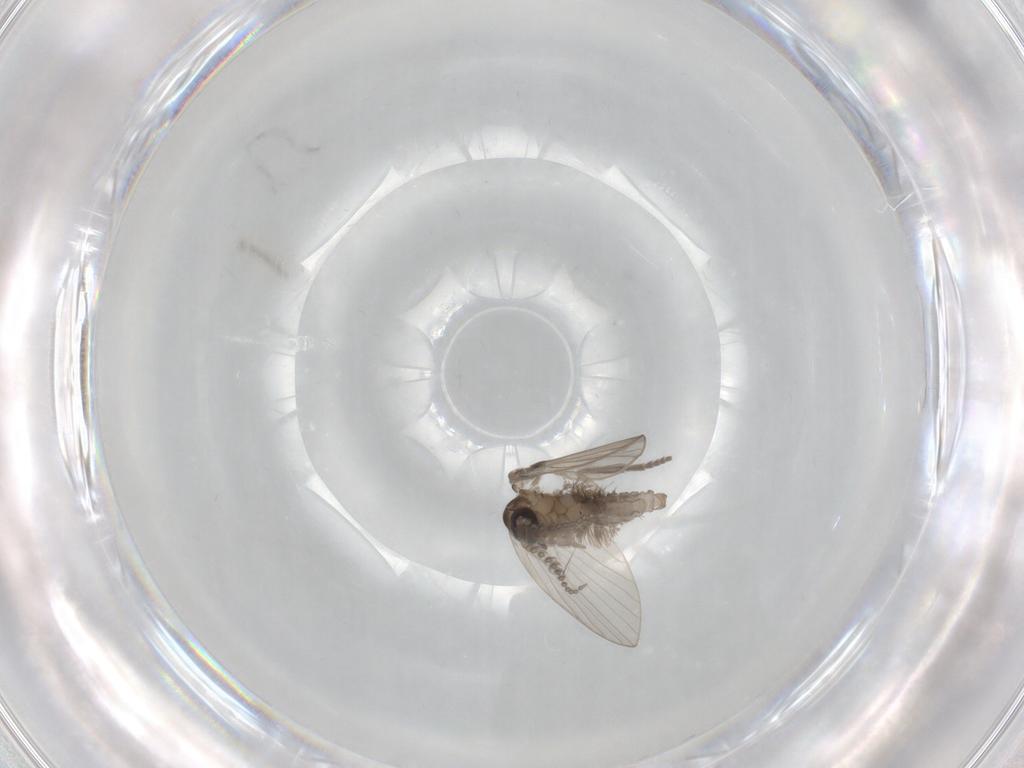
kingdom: Animalia
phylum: Arthropoda
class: Insecta
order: Diptera
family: Psychodidae
